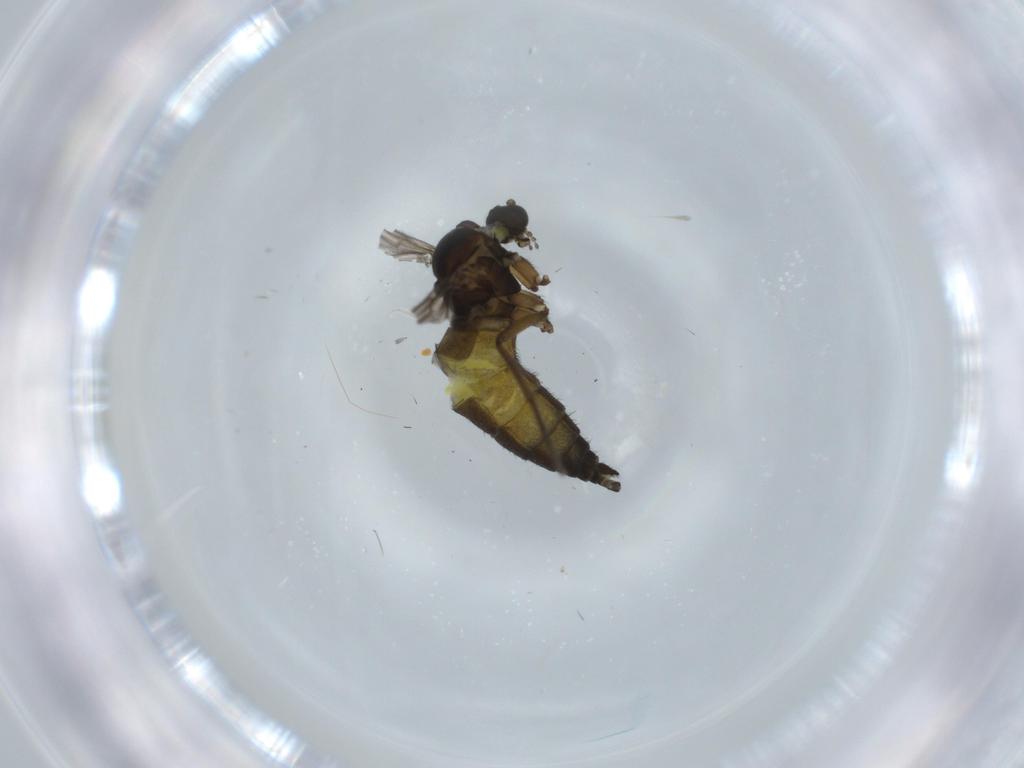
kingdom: Animalia
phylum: Arthropoda
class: Insecta
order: Diptera
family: Sciaridae
